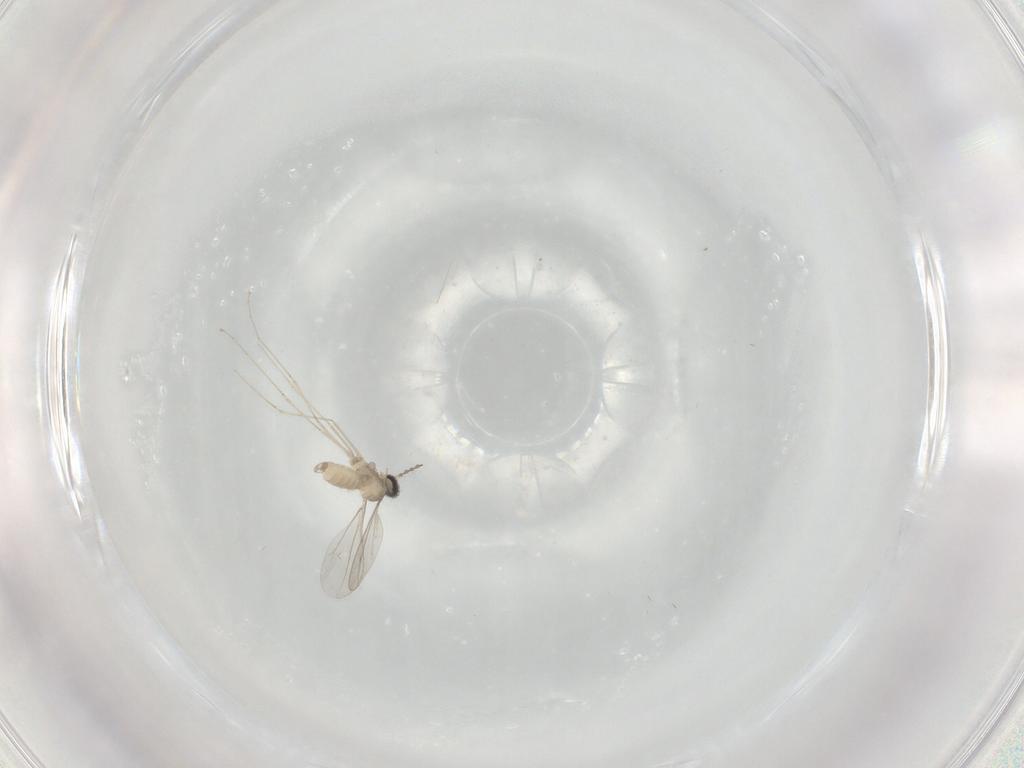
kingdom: Animalia
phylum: Arthropoda
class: Insecta
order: Diptera
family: Cecidomyiidae
